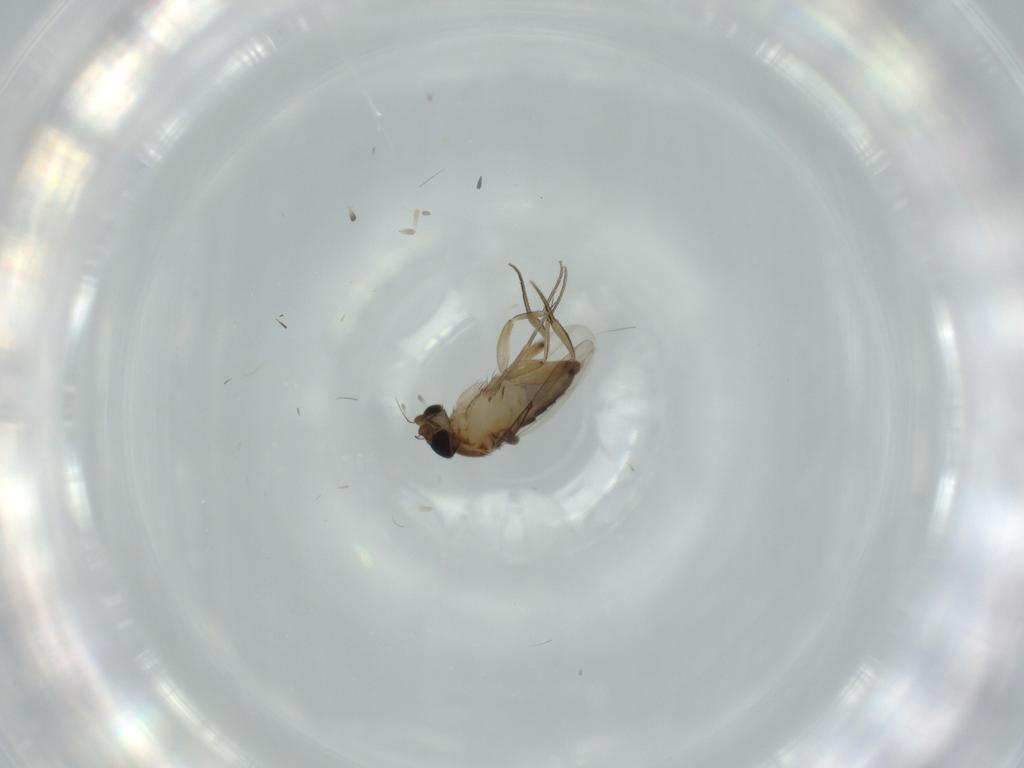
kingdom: Animalia
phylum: Arthropoda
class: Insecta
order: Diptera
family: Phoridae
